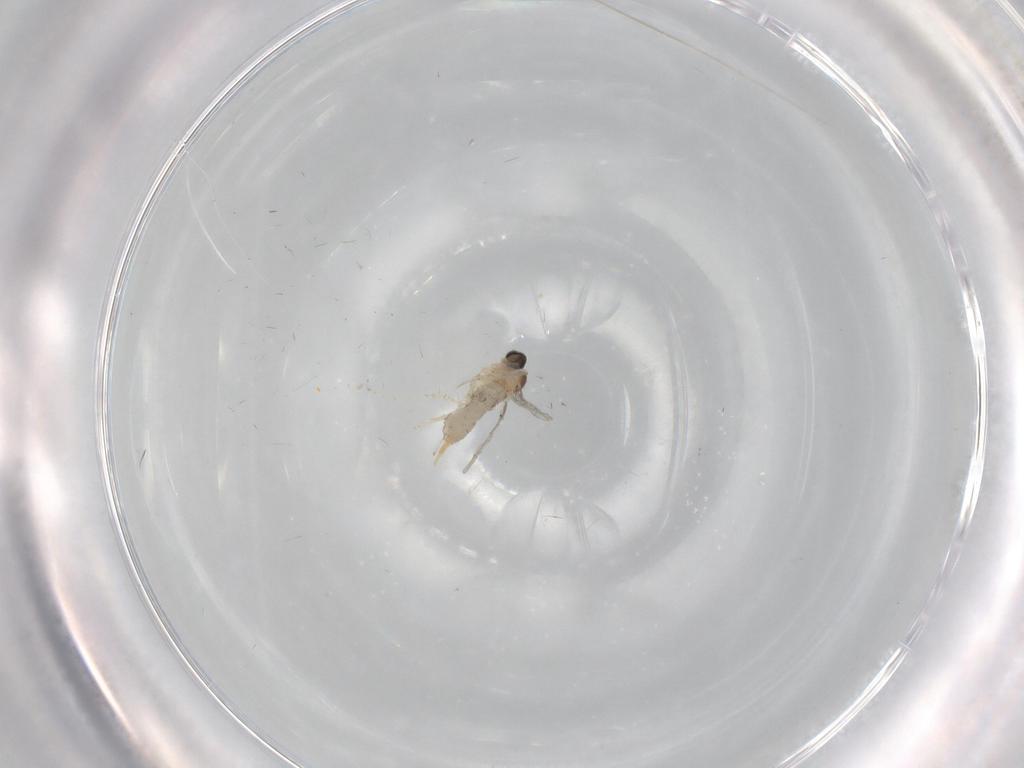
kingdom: Animalia
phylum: Arthropoda
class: Insecta
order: Diptera
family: Cecidomyiidae
